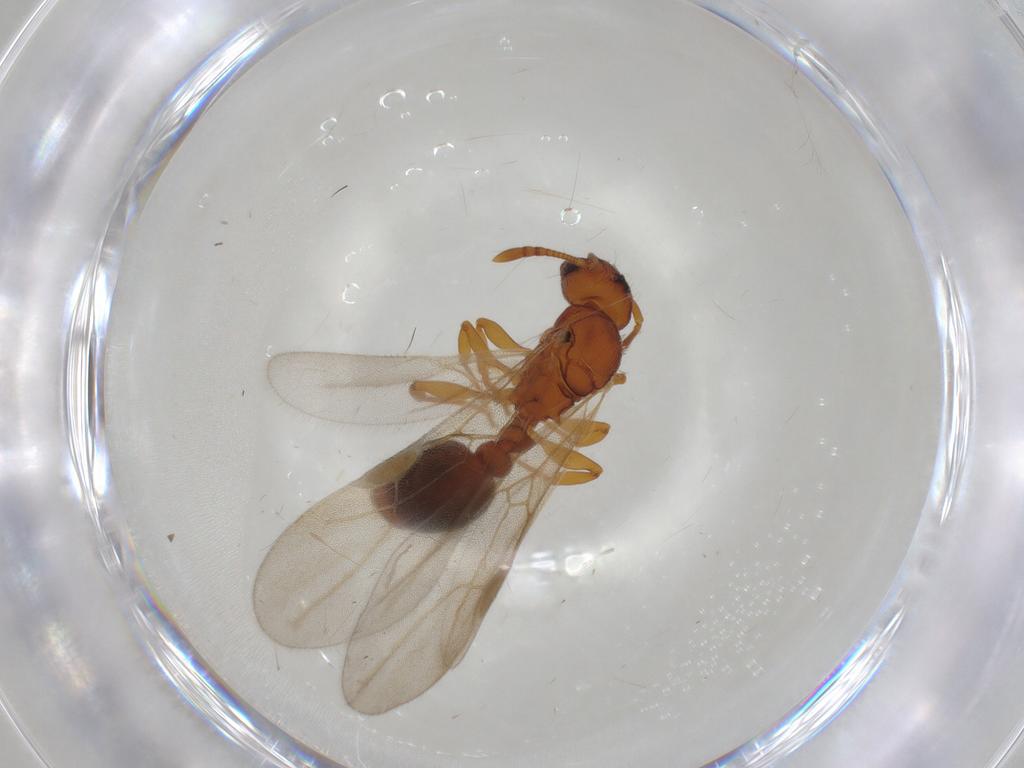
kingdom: Animalia
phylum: Arthropoda
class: Insecta
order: Hymenoptera
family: Formicidae
